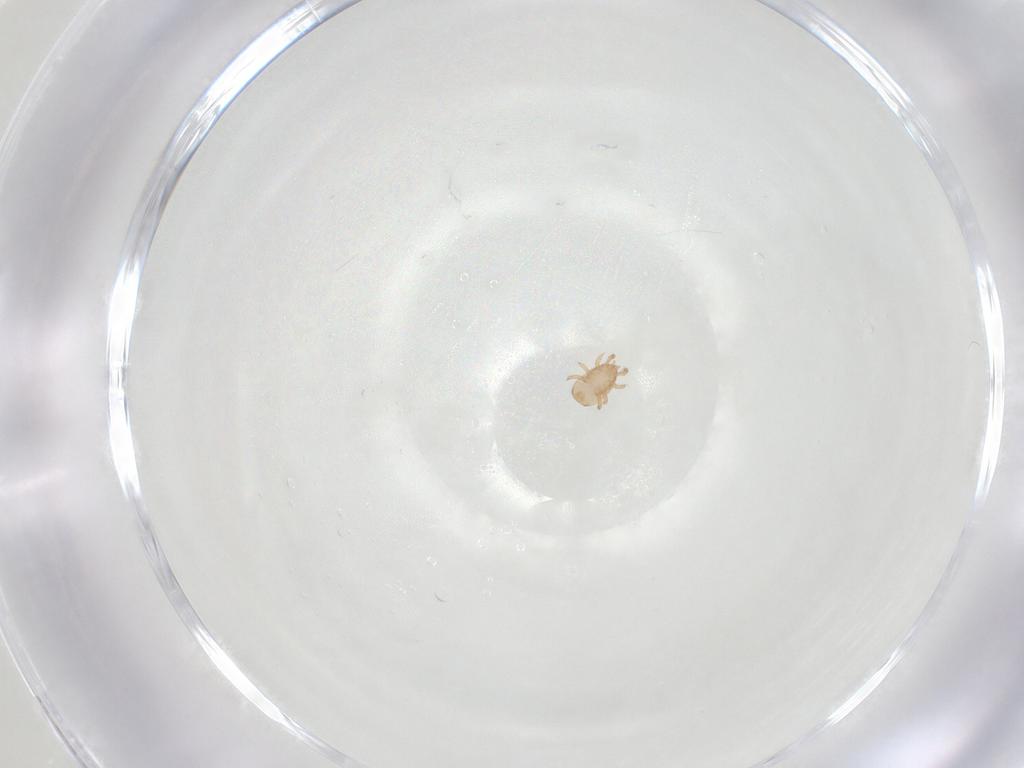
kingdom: Animalia
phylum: Arthropoda
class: Arachnida
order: Mesostigmata
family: Ascidae
